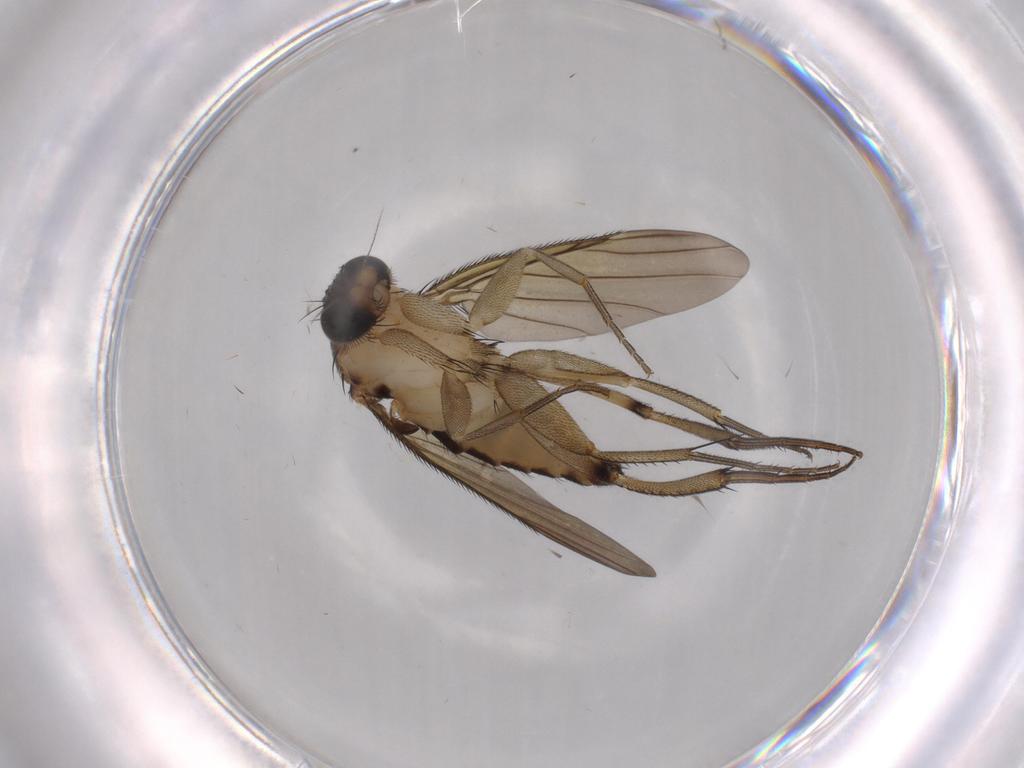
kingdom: Animalia
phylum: Arthropoda
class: Insecta
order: Diptera
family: Phoridae
